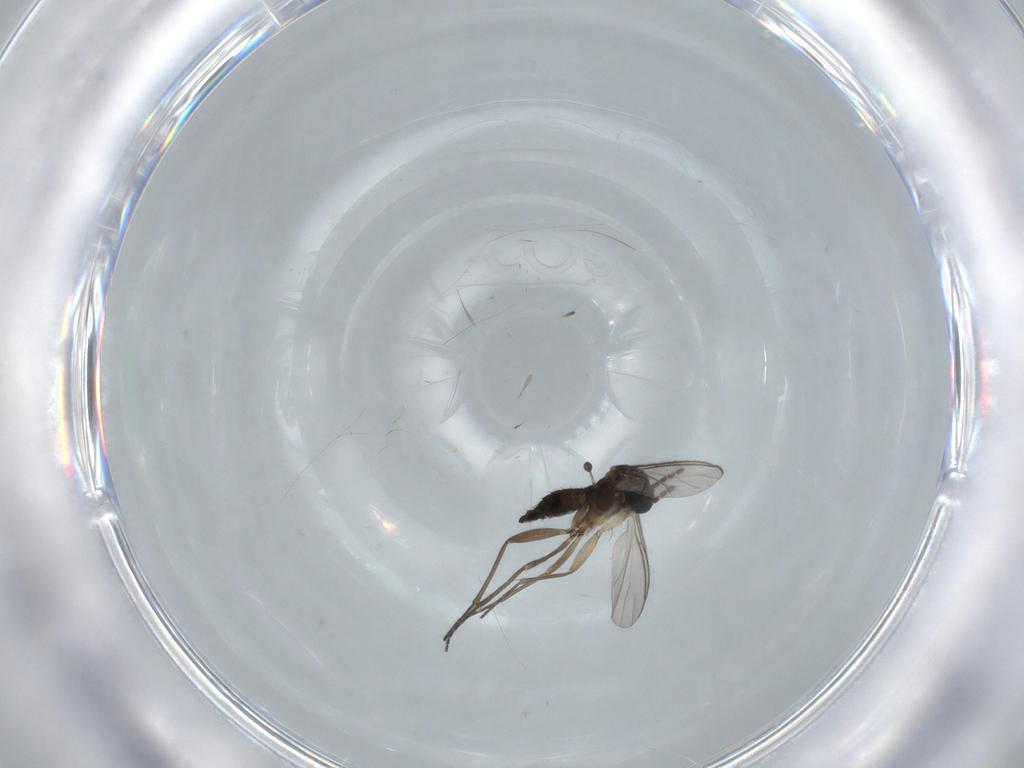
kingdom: Animalia
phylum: Arthropoda
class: Insecta
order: Diptera
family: Sciaridae
